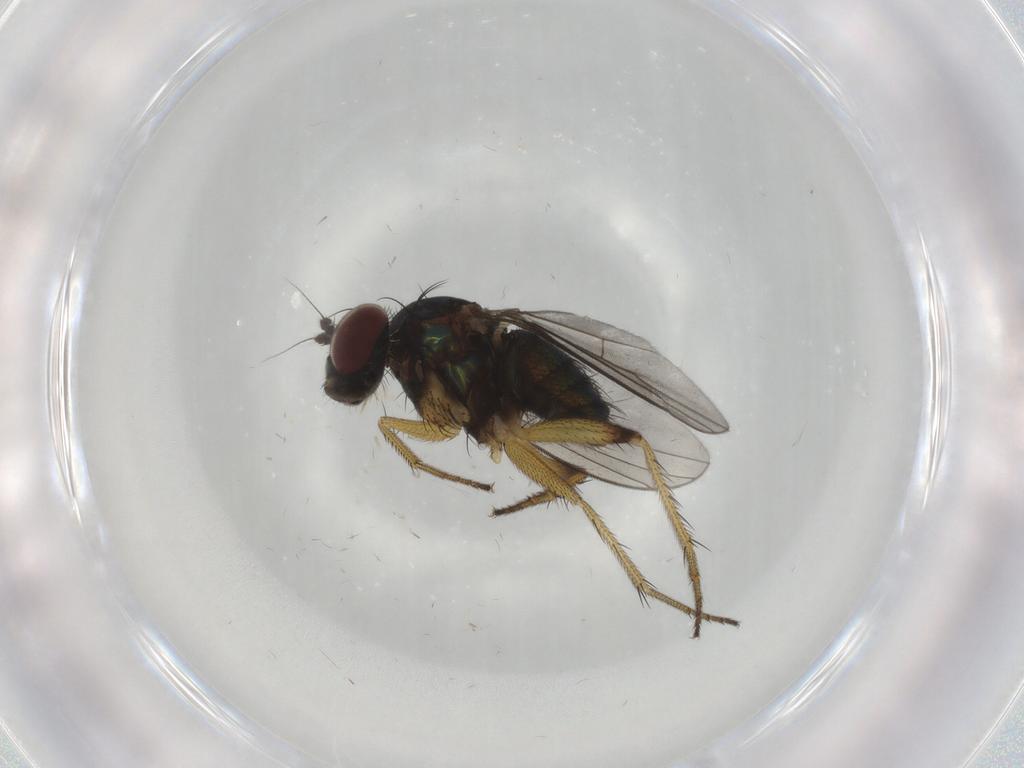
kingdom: Animalia
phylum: Arthropoda
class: Insecta
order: Diptera
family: Dolichopodidae
